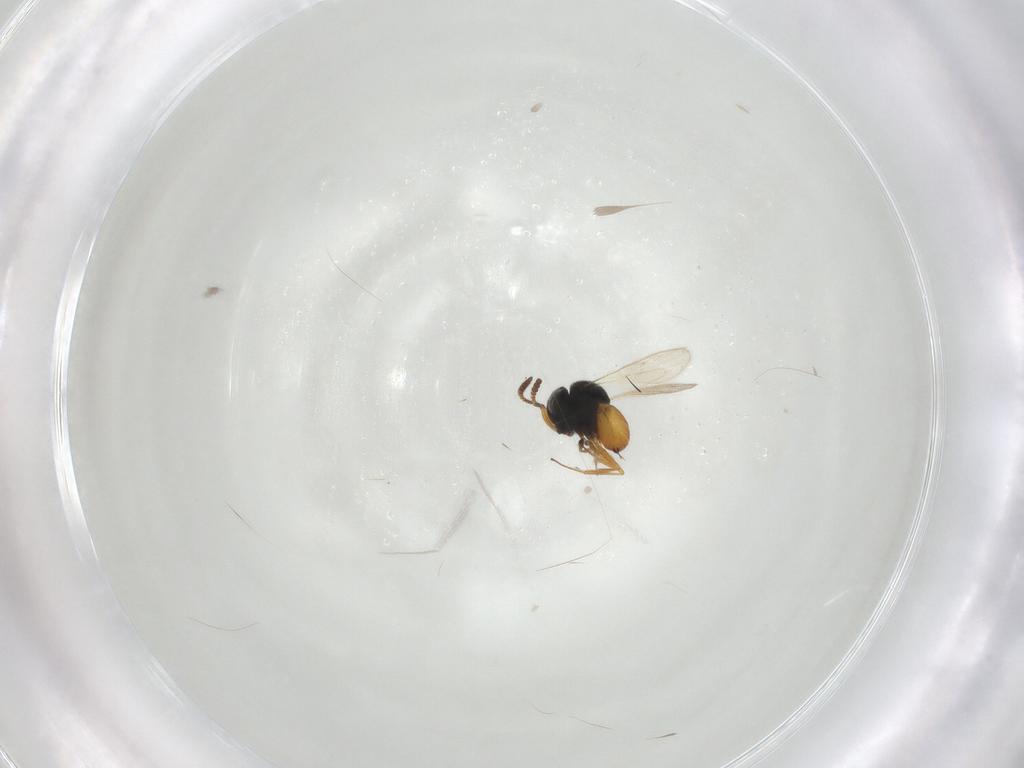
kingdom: Animalia
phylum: Arthropoda
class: Insecta
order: Hymenoptera
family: Scelionidae
